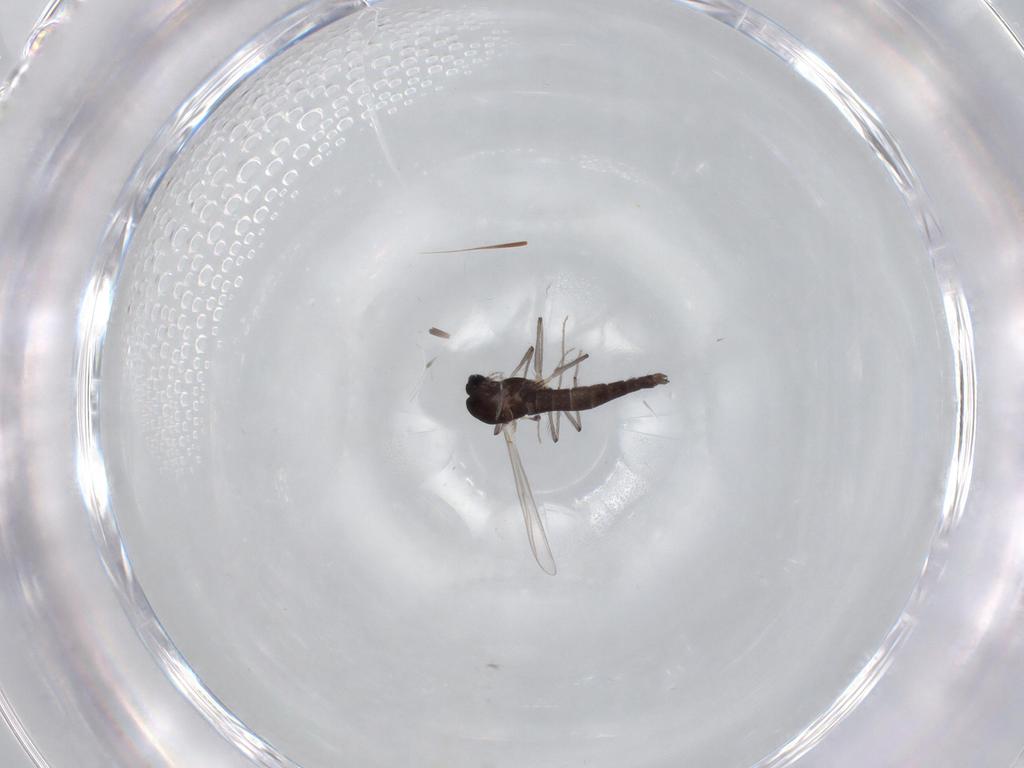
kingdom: Animalia
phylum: Arthropoda
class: Insecta
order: Diptera
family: Chironomidae
